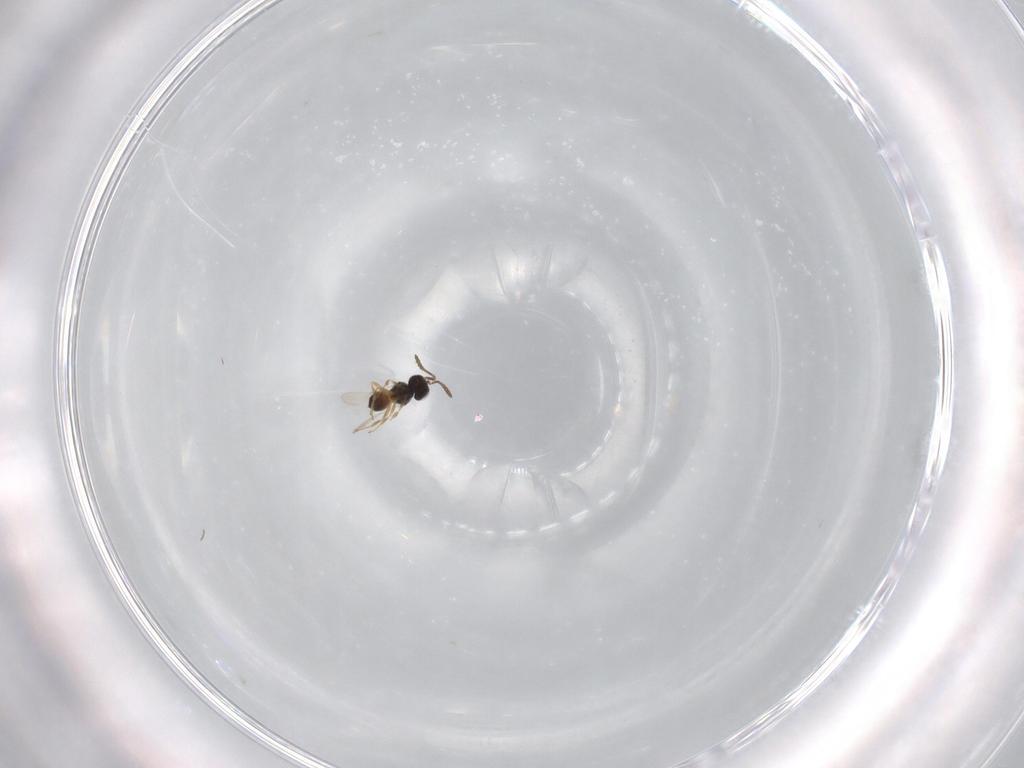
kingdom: Animalia
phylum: Arthropoda
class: Insecta
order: Hymenoptera
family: Scelionidae
